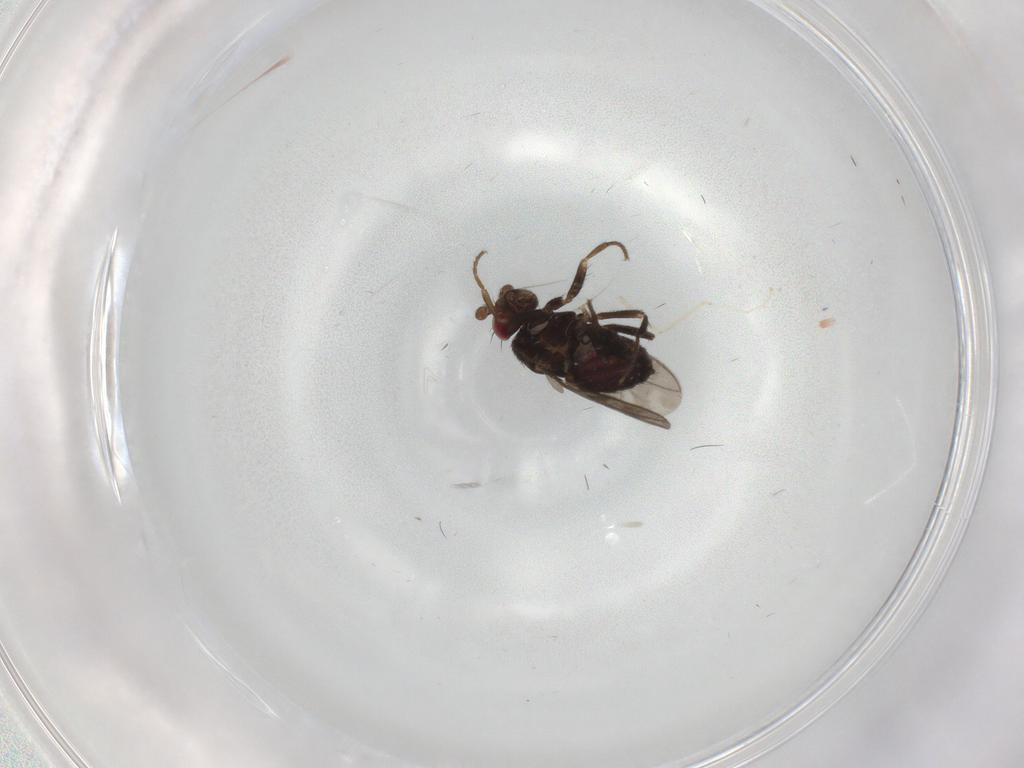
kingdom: Animalia
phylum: Arthropoda
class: Insecta
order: Diptera
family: Sphaeroceridae
